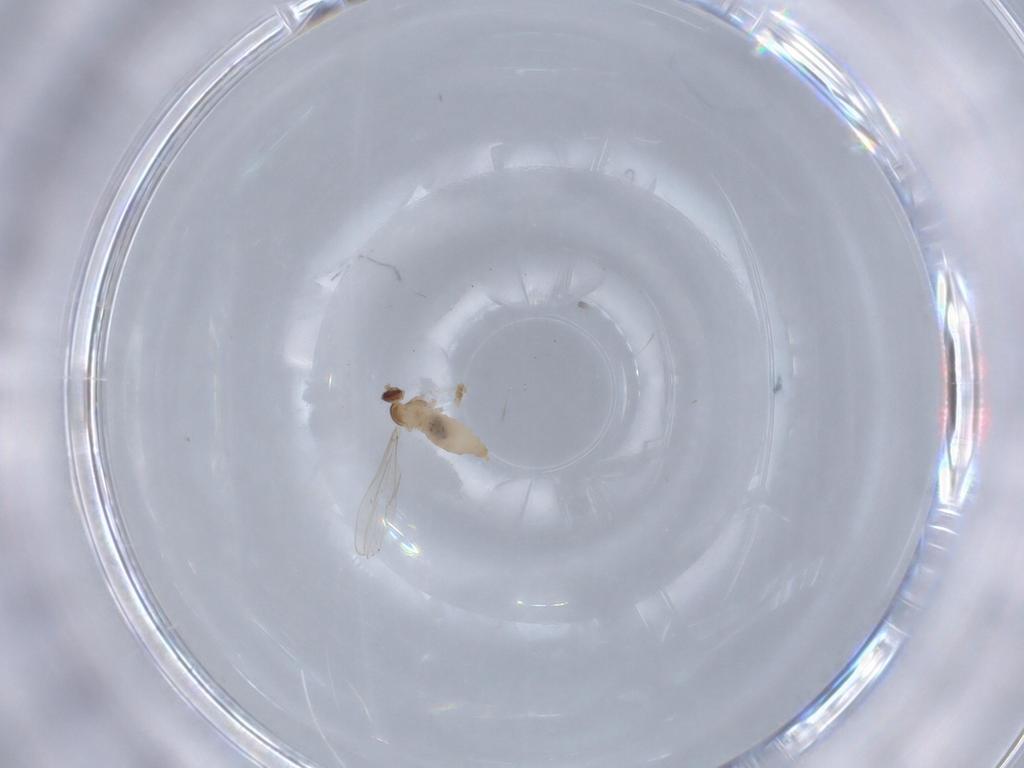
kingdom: Animalia
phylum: Arthropoda
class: Insecta
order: Diptera
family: Cecidomyiidae
